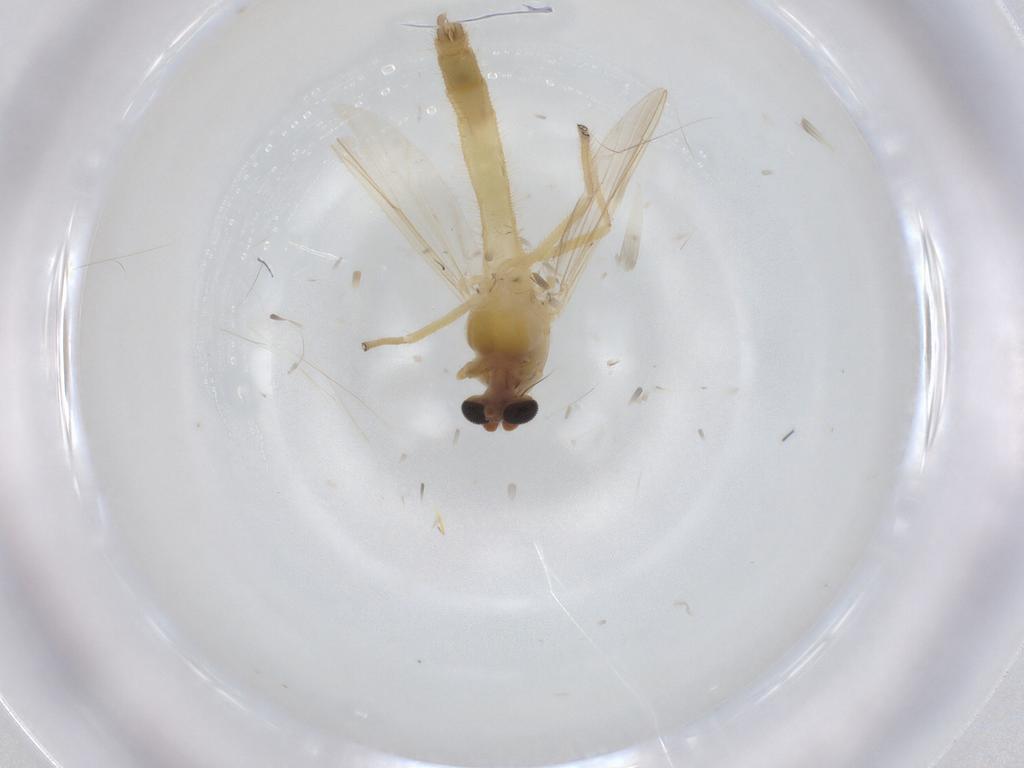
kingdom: Animalia
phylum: Arthropoda
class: Insecta
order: Diptera
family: Chironomidae
